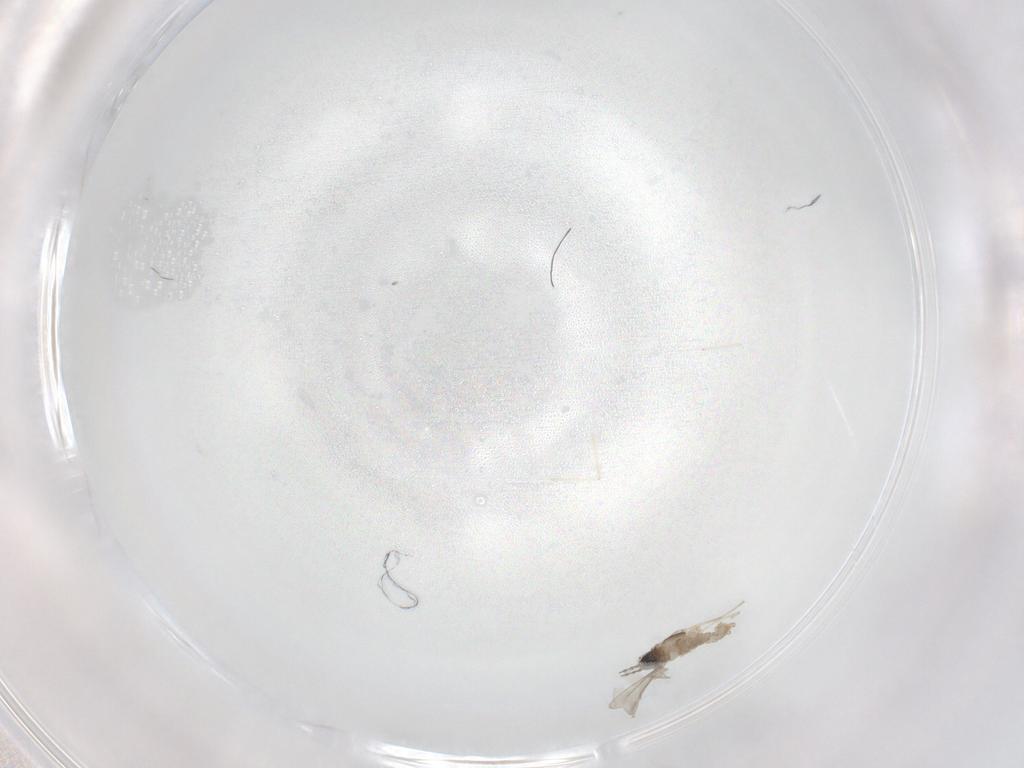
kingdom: Animalia
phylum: Arthropoda
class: Insecta
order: Diptera
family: Cecidomyiidae
